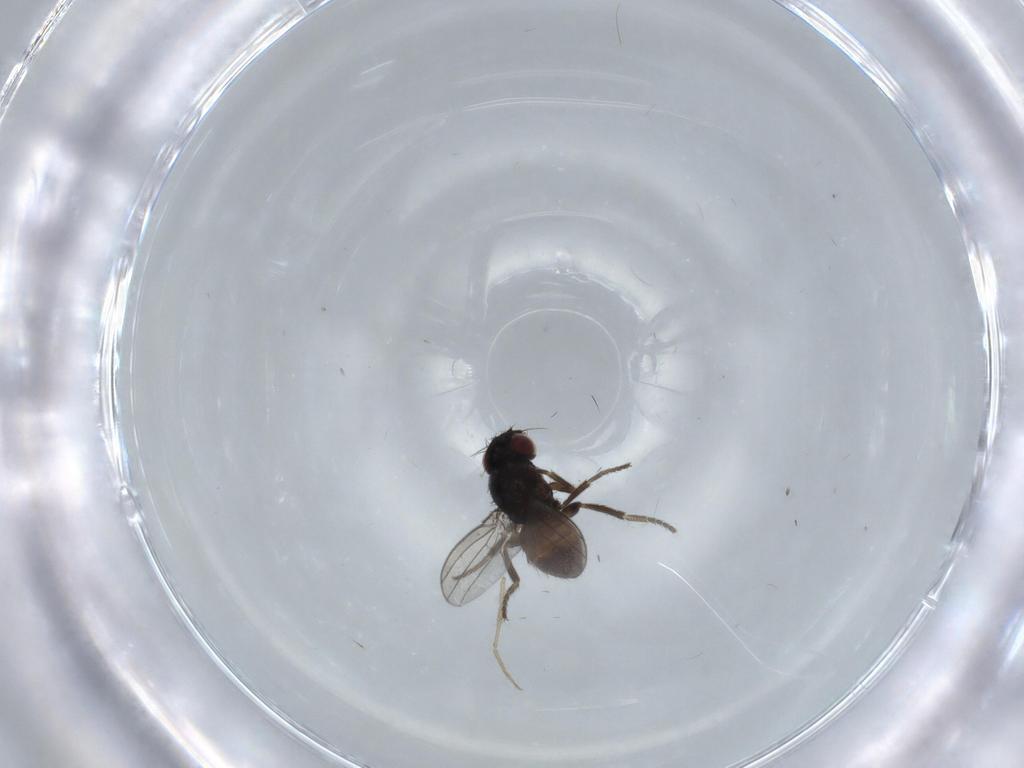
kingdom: Animalia
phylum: Arthropoda
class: Insecta
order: Diptera
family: Milichiidae
